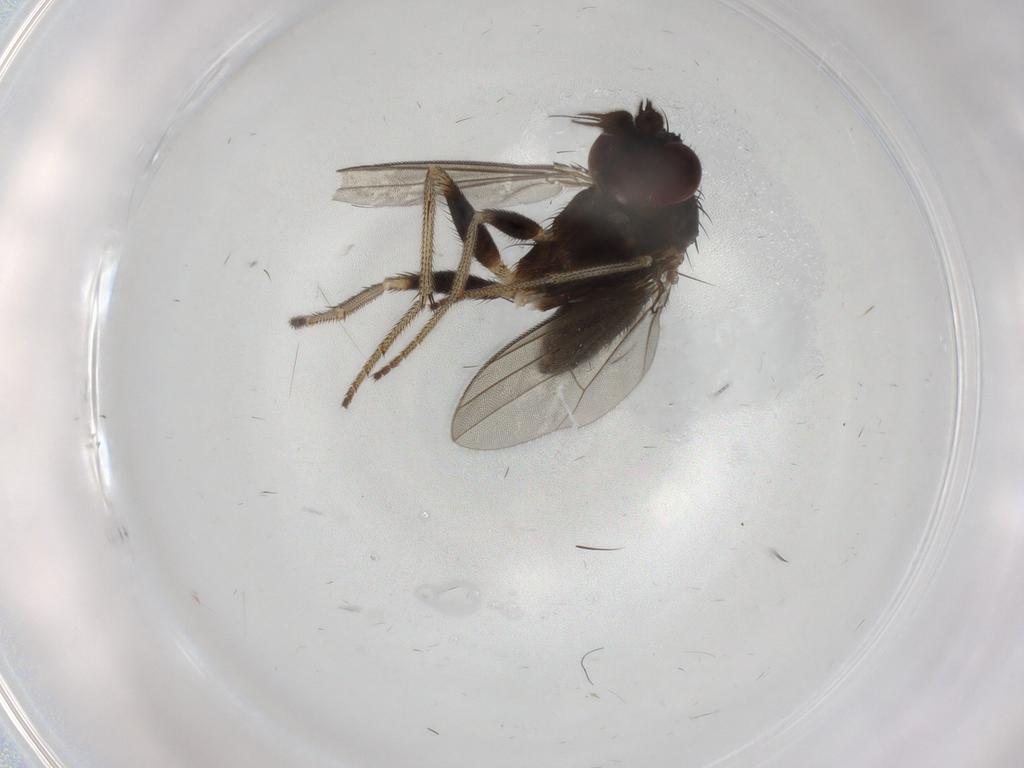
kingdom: Animalia
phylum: Arthropoda
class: Insecta
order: Diptera
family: Dolichopodidae
